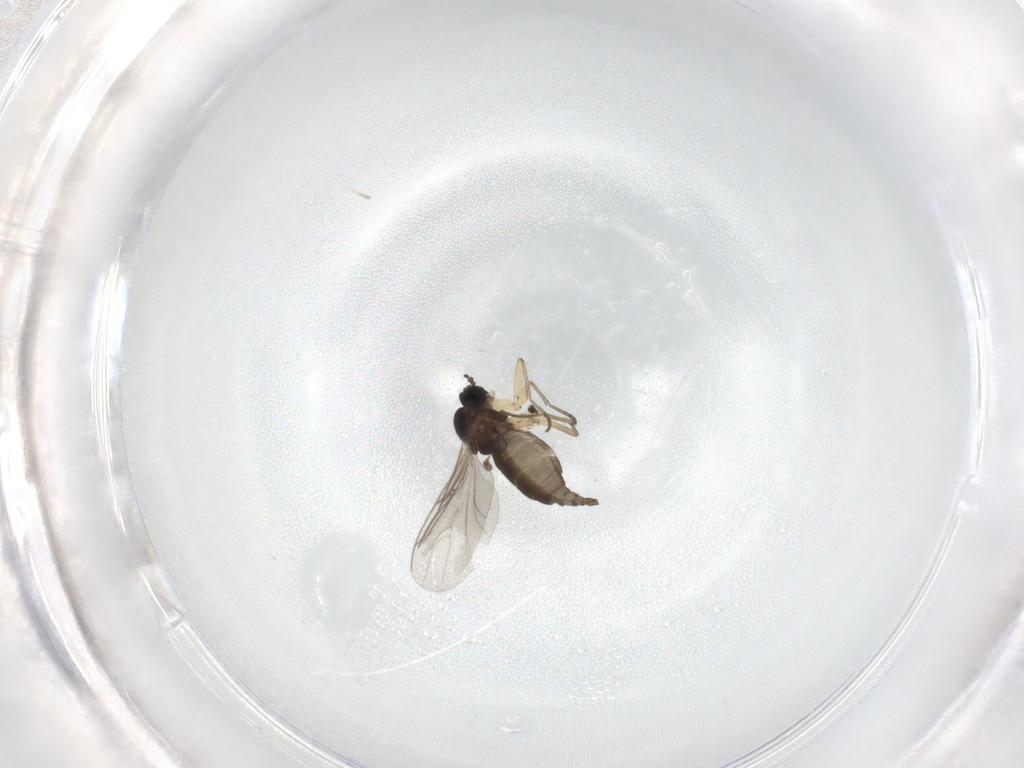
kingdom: Animalia
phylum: Arthropoda
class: Insecta
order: Diptera
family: Sciaridae
